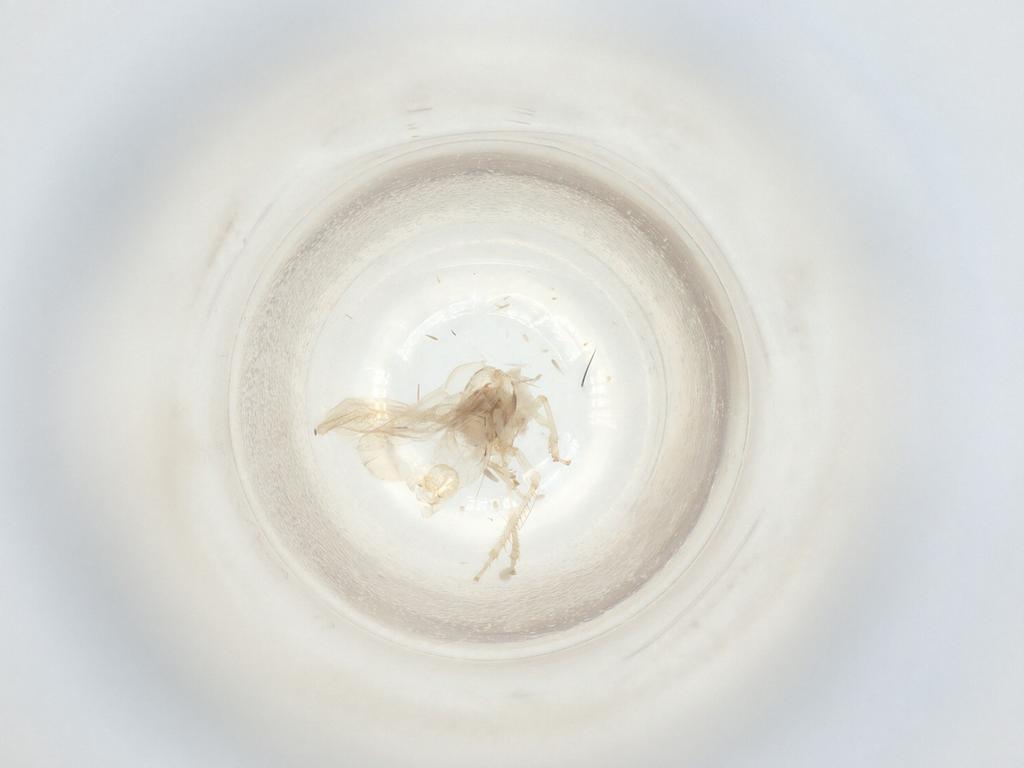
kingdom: Animalia
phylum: Arthropoda
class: Insecta
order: Hemiptera
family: Cicadellidae
